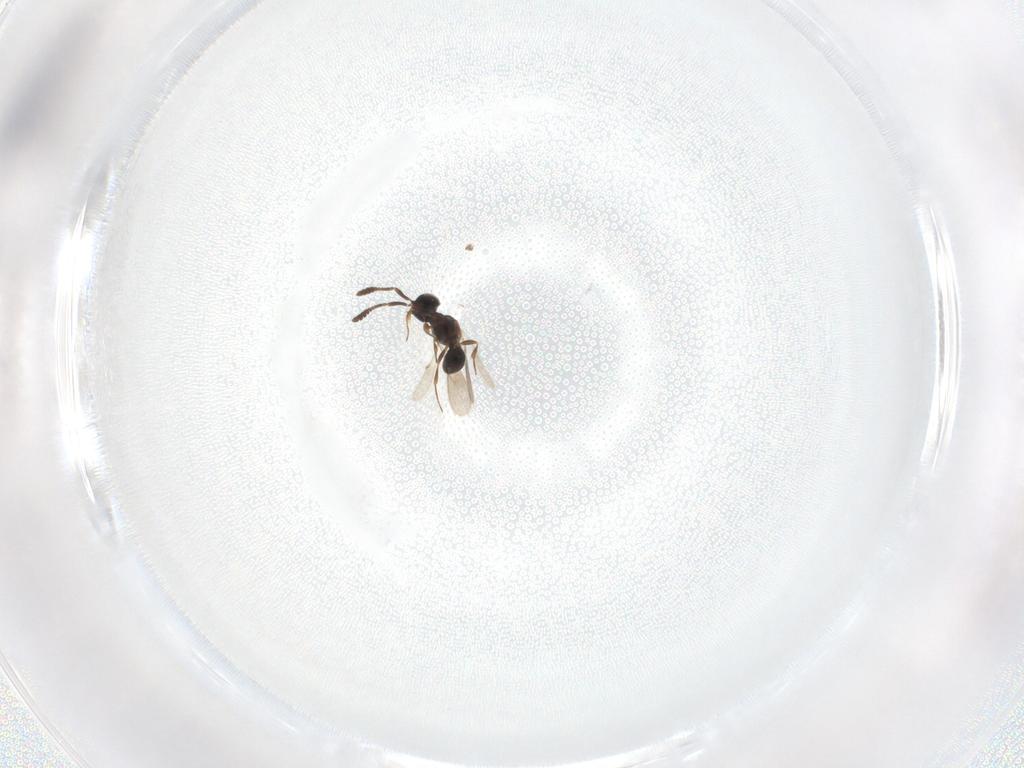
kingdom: Animalia
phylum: Arthropoda
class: Insecta
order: Hymenoptera
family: Scelionidae
